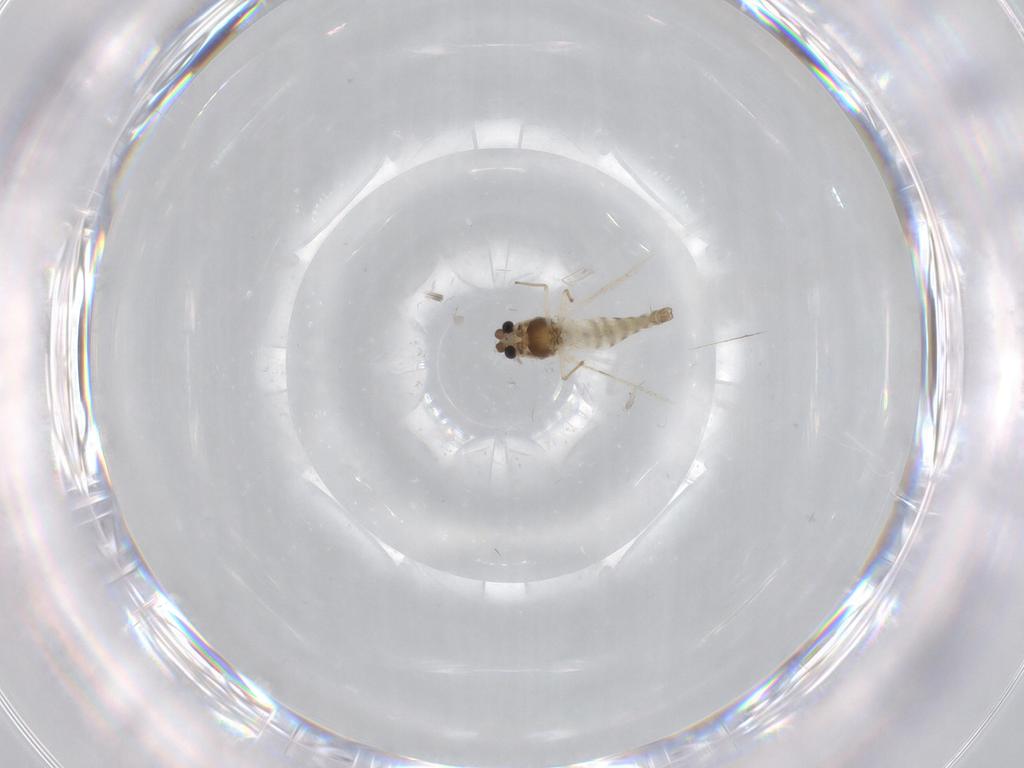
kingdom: Animalia
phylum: Arthropoda
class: Insecta
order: Diptera
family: Chironomidae
